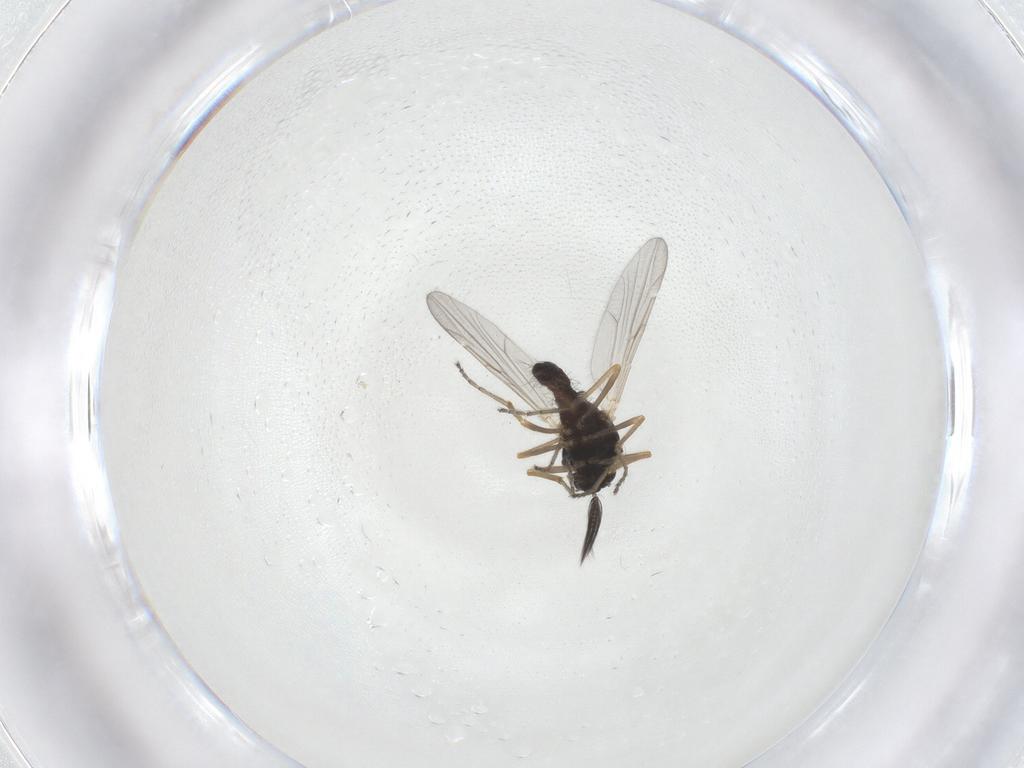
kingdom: Animalia
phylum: Arthropoda
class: Insecta
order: Diptera
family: Ceratopogonidae
